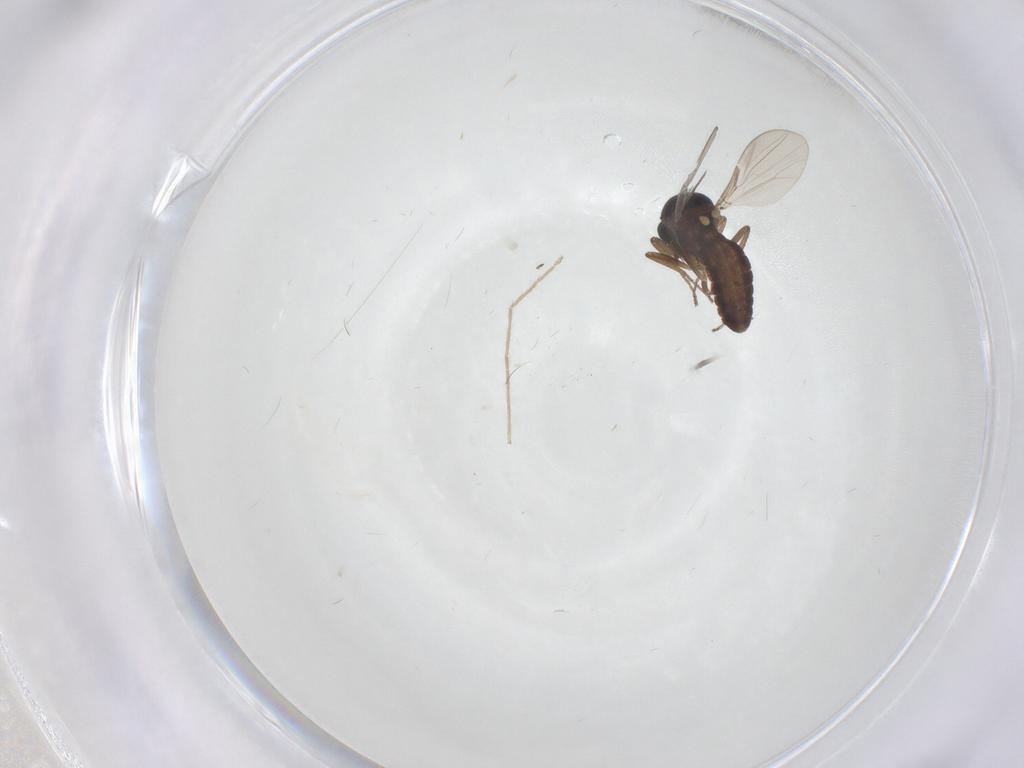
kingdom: Animalia
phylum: Arthropoda
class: Insecta
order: Diptera
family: Ceratopogonidae
